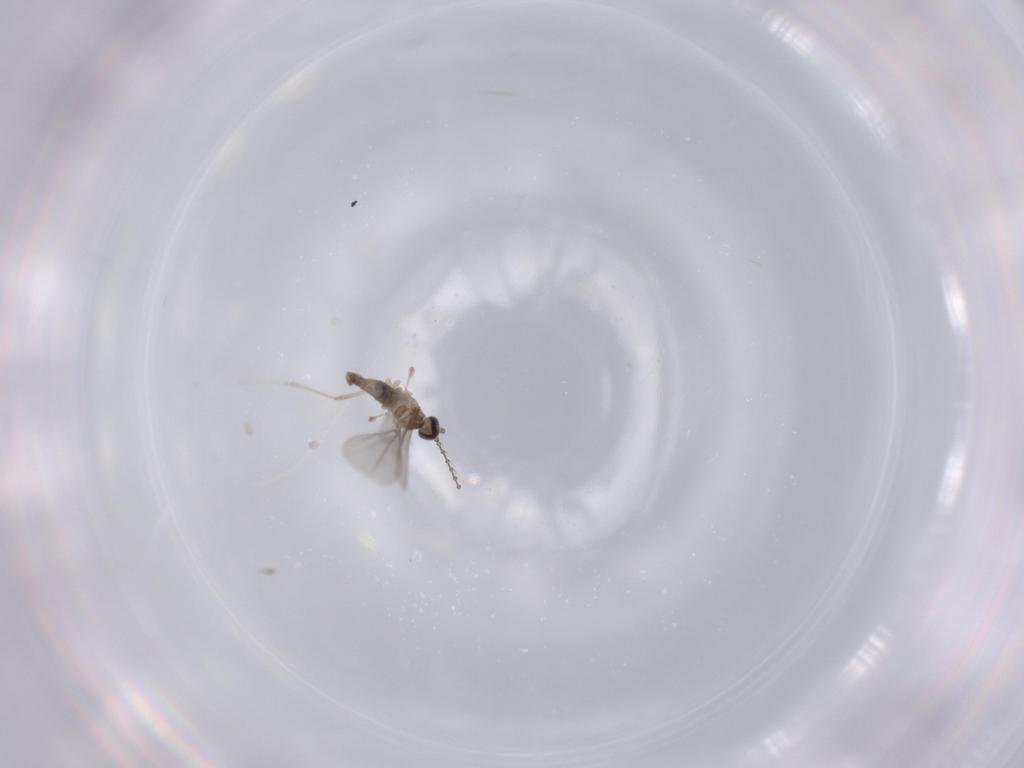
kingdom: Animalia
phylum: Arthropoda
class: Insecta
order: Diptera
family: Cecidomyiidae
